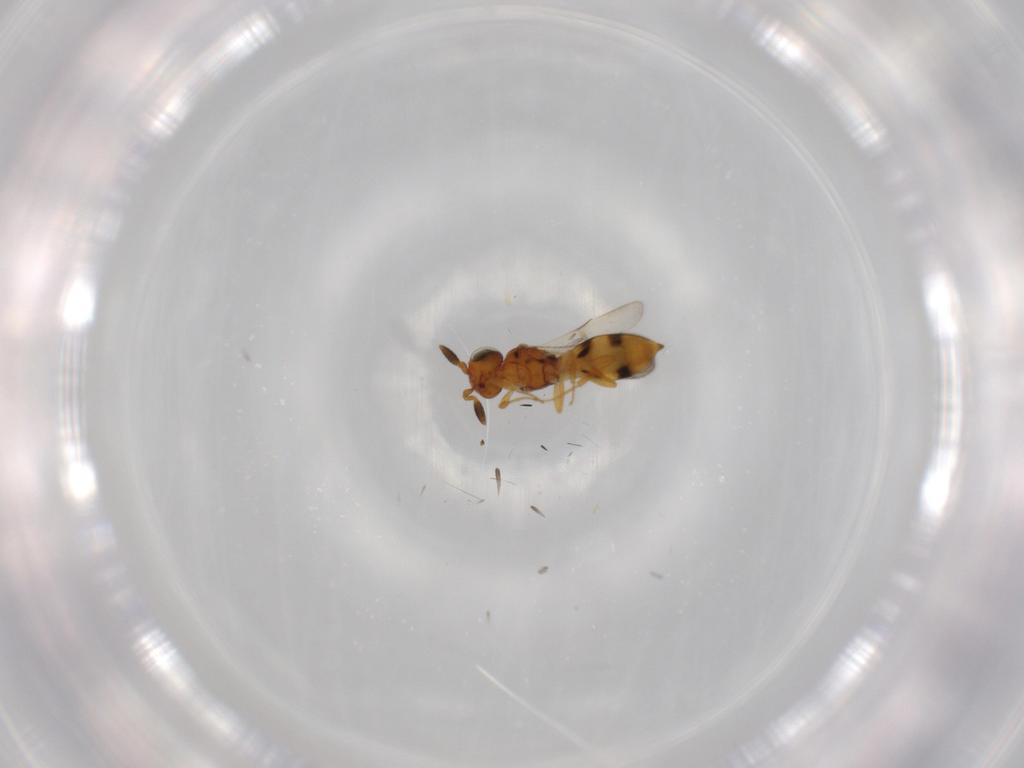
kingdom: Animalia
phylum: Arthropoda
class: Insecta
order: Hymenoptera
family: Scelionidae
